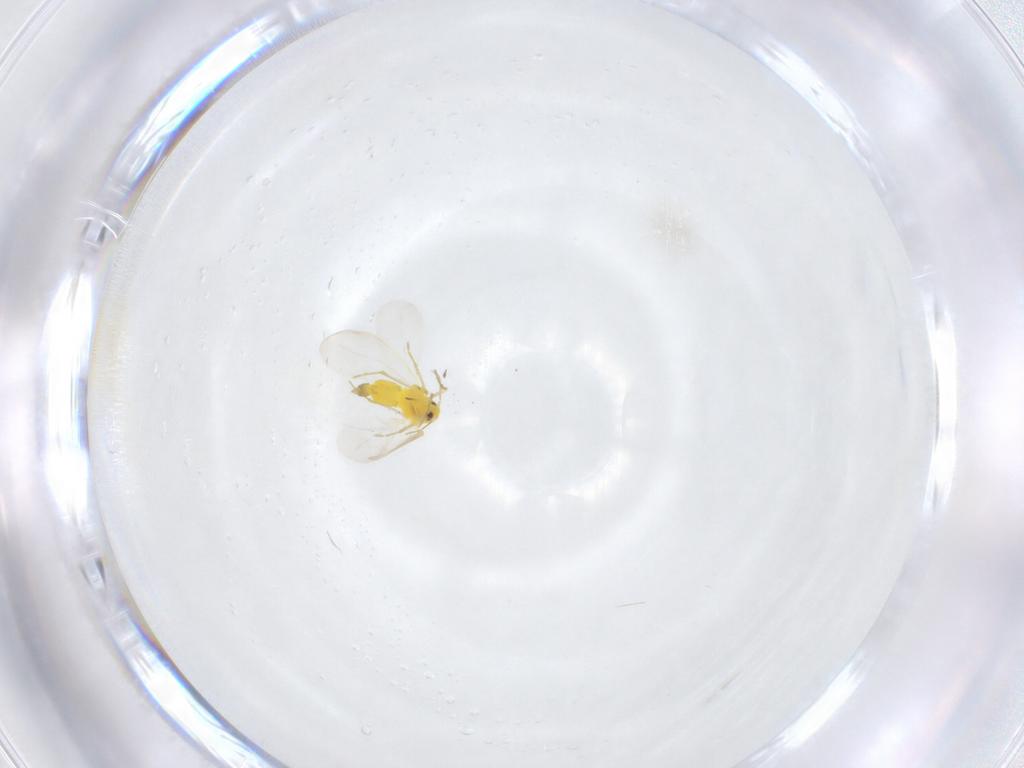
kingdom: Animalia
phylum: Arthropoda
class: Insecta
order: Hemiptera
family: Aleyrodidae
